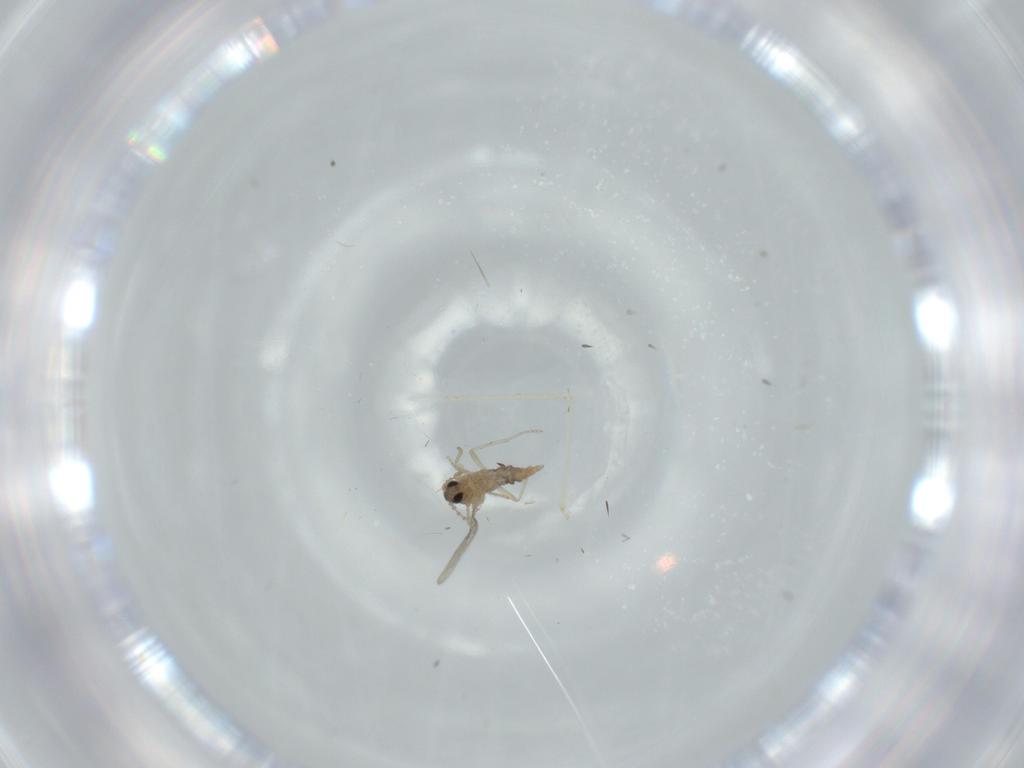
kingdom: Animalia
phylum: Arthropoda
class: Insecta
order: Diptera
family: Cecidomyiidae
